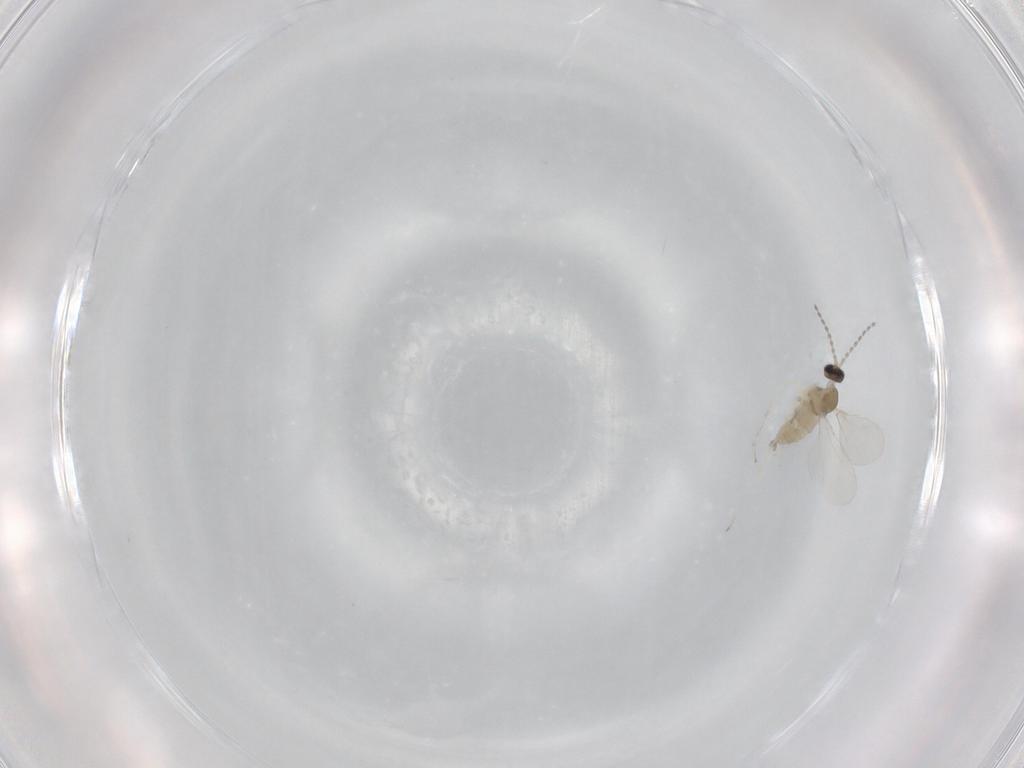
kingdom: Animalia
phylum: Arthropoda
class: Insecta
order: Diptera
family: Cecidomyiidae
